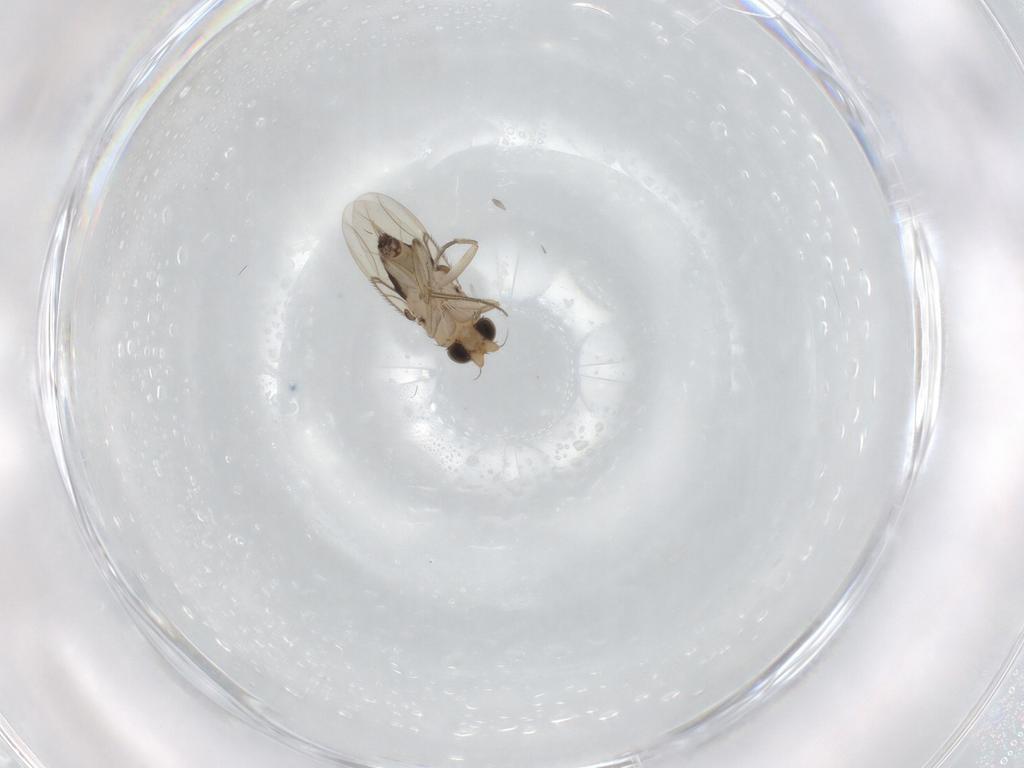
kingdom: Animalia
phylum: Arthropoda
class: Insecta
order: Diptera
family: Phoridae
